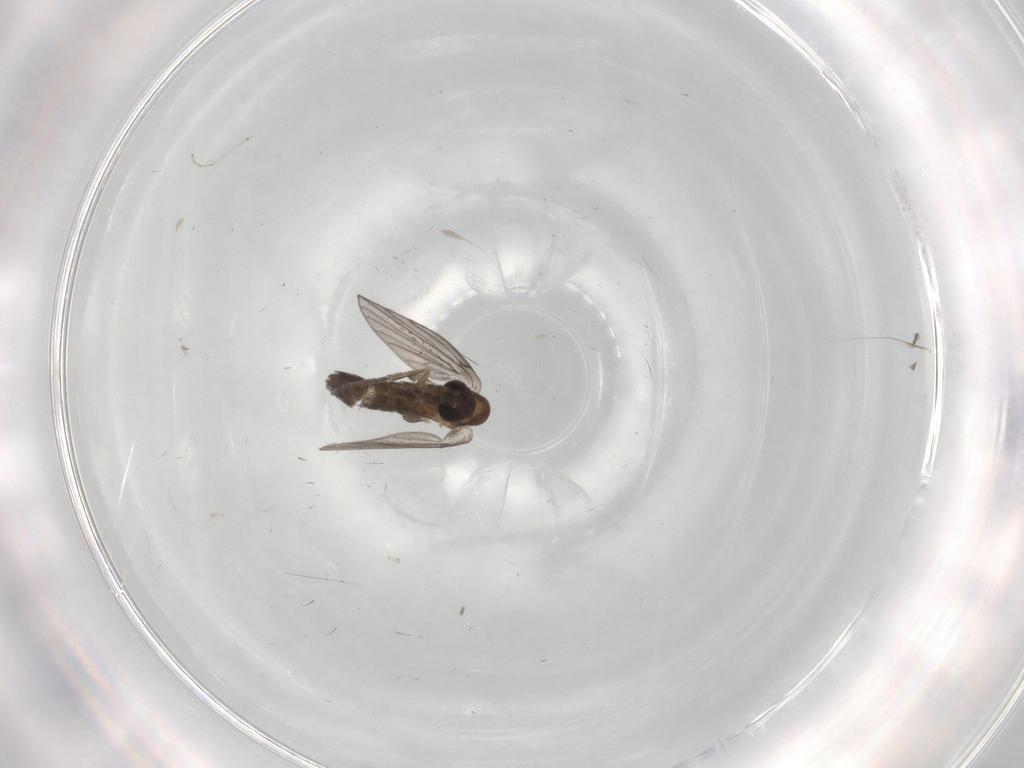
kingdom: Animalia
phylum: Arthropoda
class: Insecta
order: Diptera
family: Psychodidae
